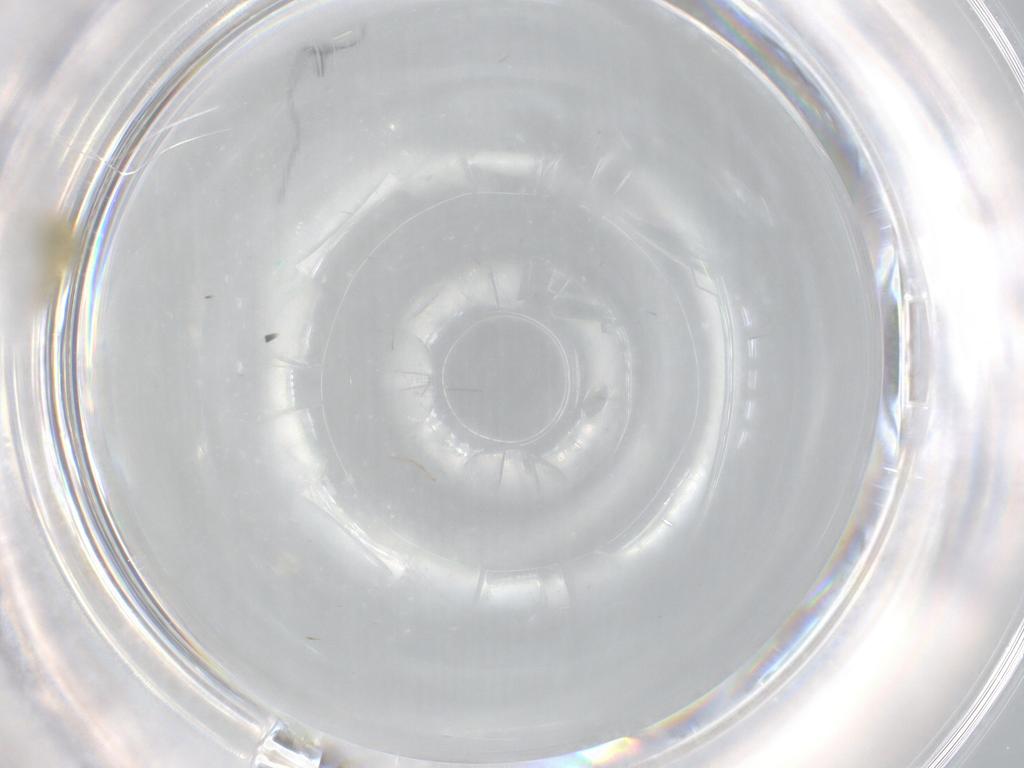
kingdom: Animalia
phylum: Arthropoda
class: Insecta
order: Diptera
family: Chironomidae
